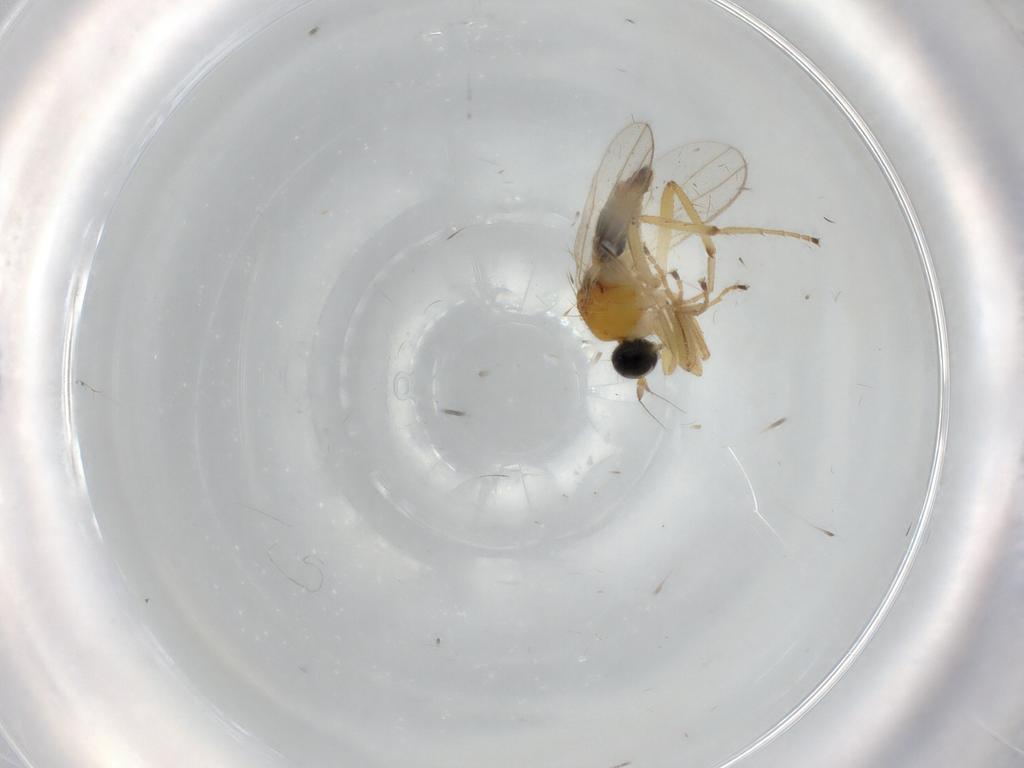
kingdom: Animalia
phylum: Arthropoda
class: Insecta
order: Diptera
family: Hybotidae
